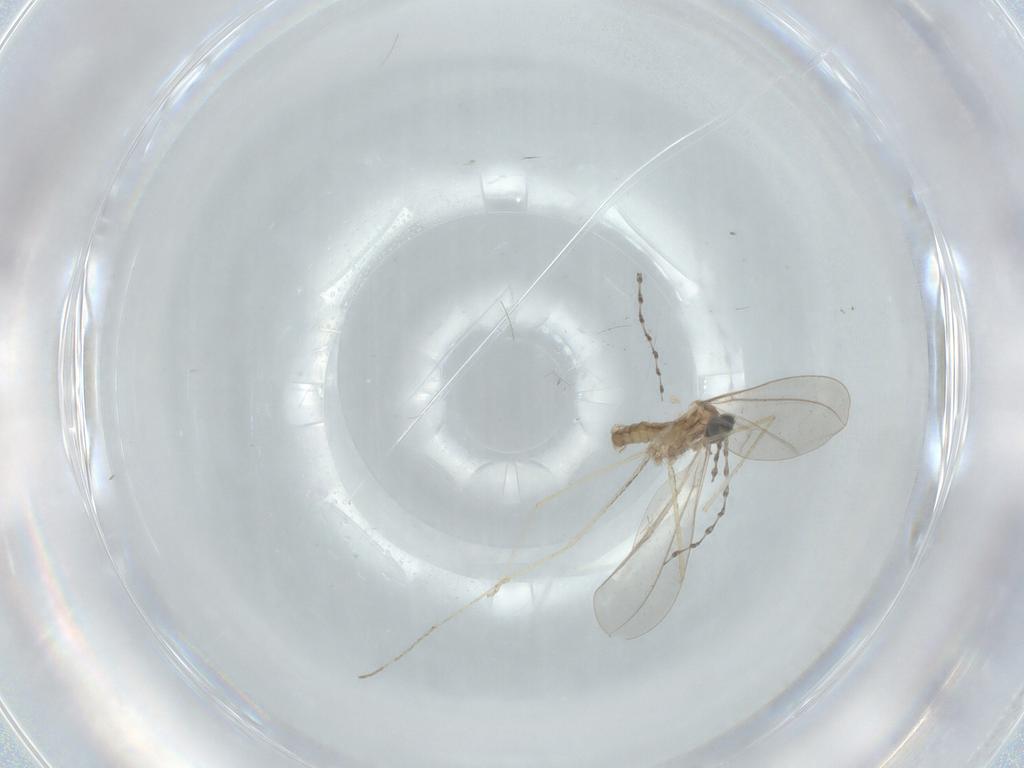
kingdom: Animalia
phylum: Arthropoda
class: Insecta
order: Diptera
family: Cecidomyiidae
